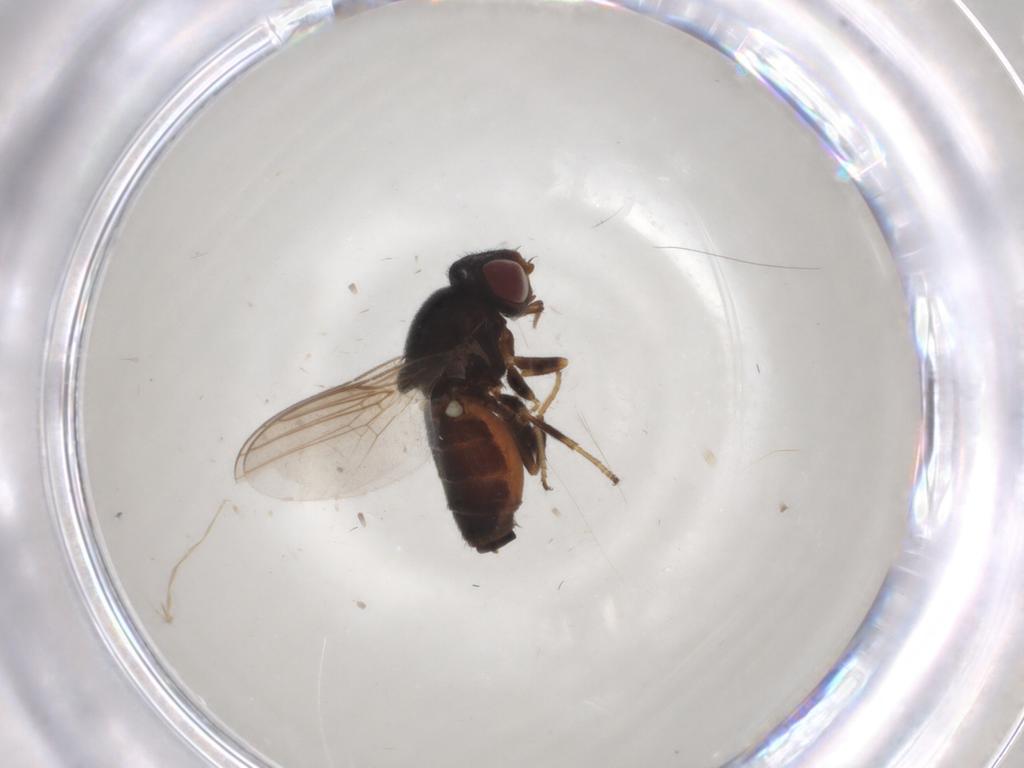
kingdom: Animalia
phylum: Arthropoda
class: Insecta
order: Diptera
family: Chloropidae
